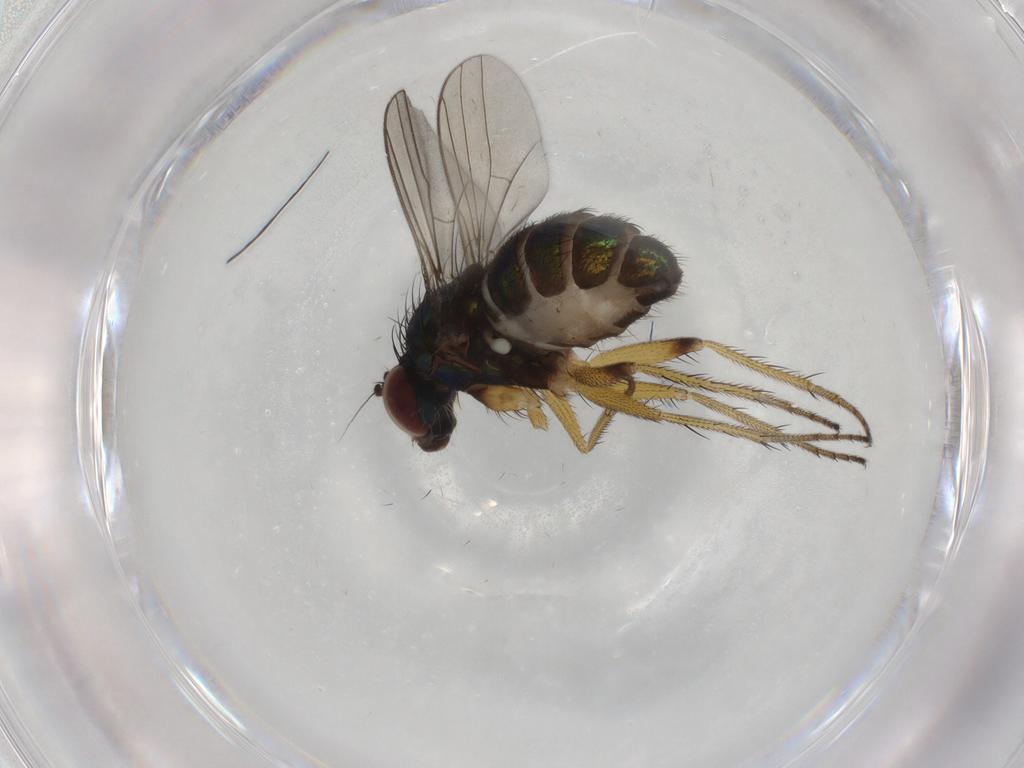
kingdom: Animalia
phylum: Arthropoda
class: Insecta
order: Diptera
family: Dolichopodidae
